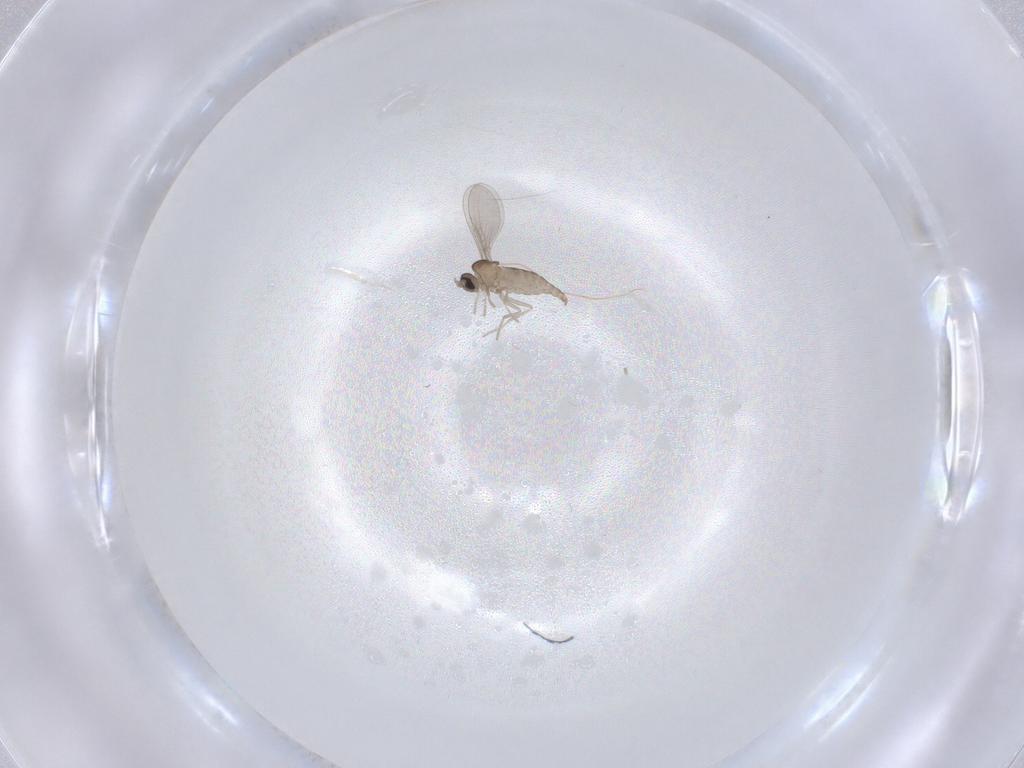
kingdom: Animalia
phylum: Arthropoda
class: Insecta
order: Diptera
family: Cecidomyiidae
